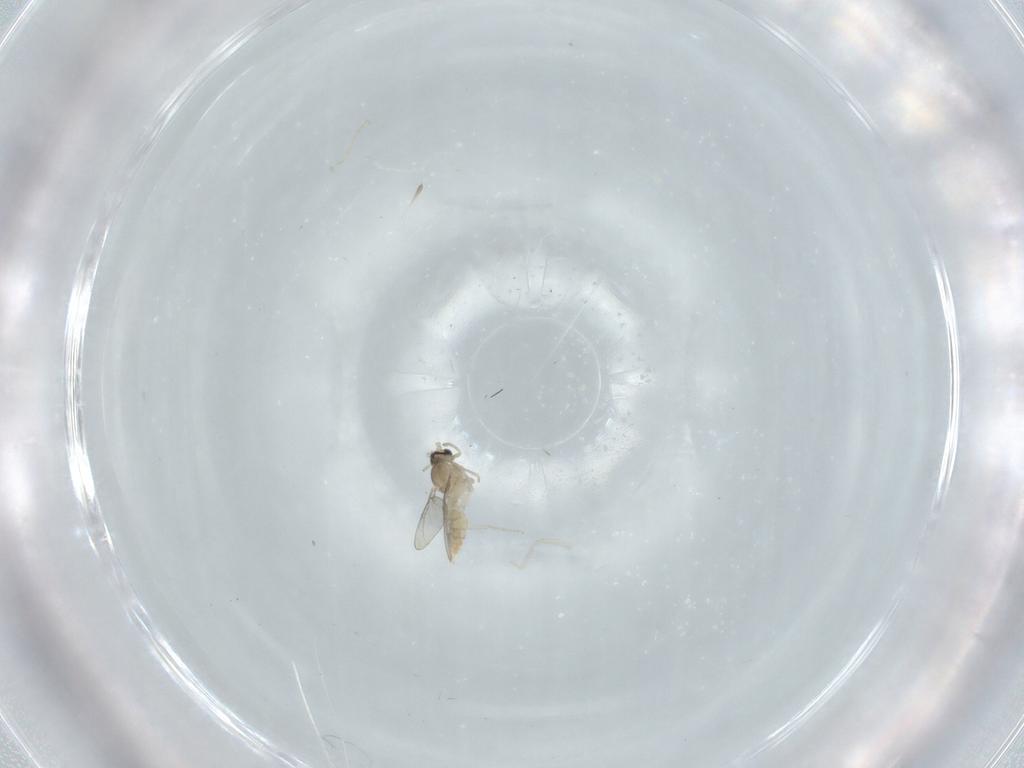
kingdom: Animalia
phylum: Arthropoda
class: Insecta
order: Diptera
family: Cecidomyiidae
